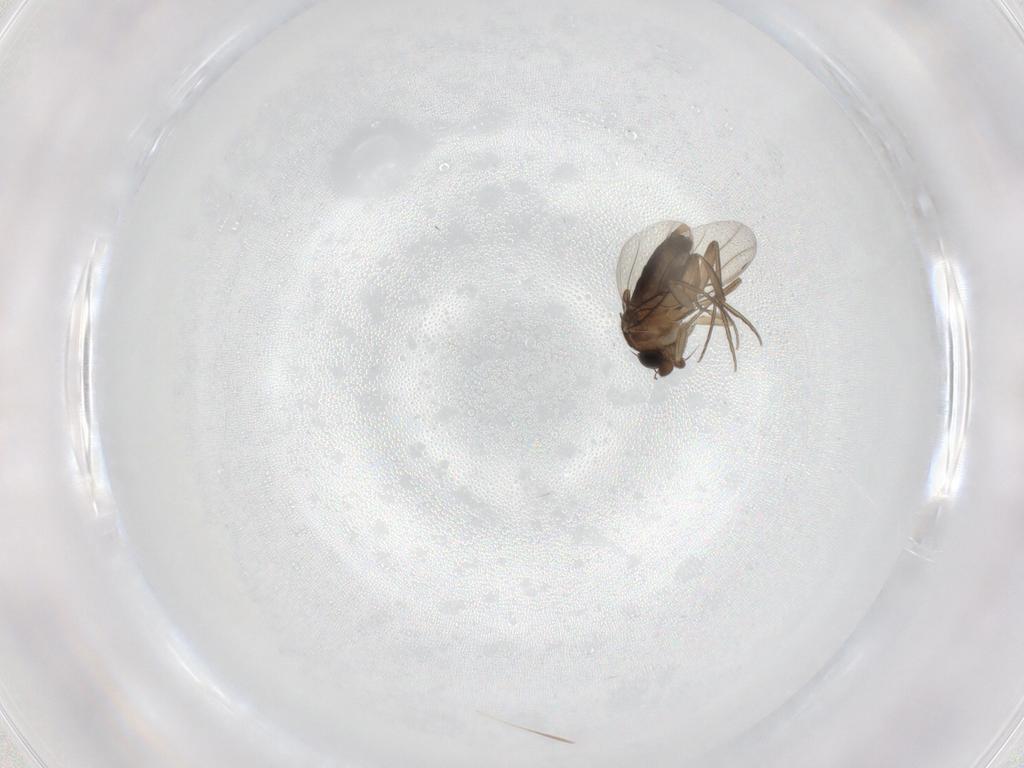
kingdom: Animalia
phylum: Arthropoda
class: Insecta
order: Diptera
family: Phoridae
